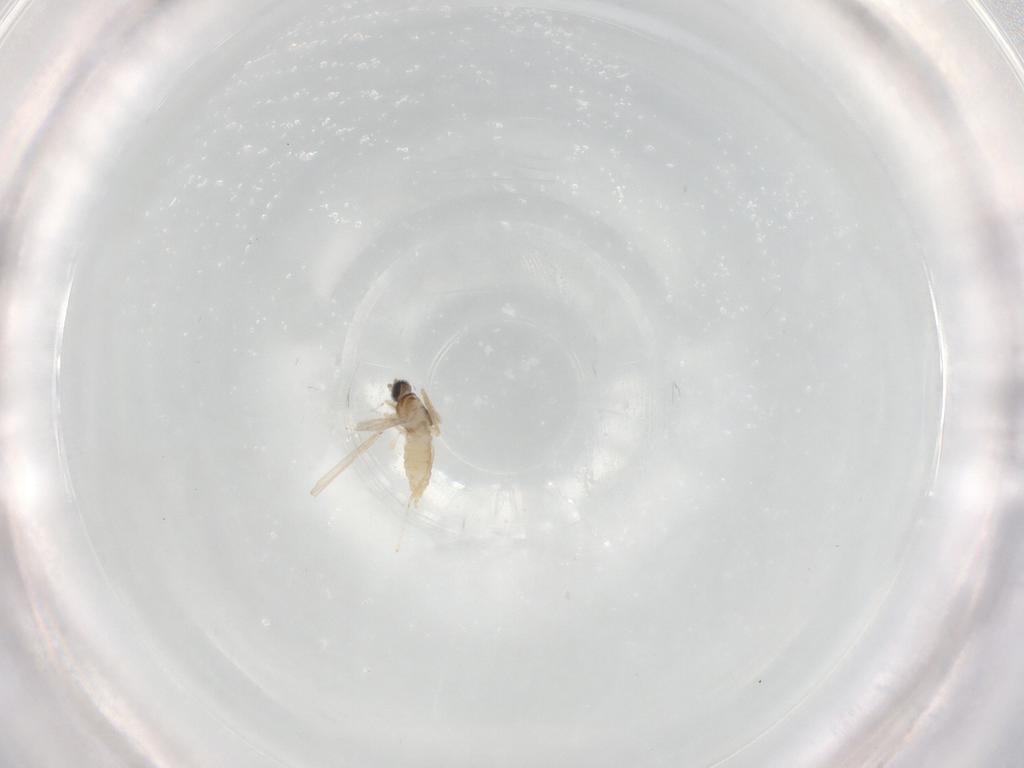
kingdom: Animalia
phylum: Arthropoda
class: Insecta
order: Diptera
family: Cecidomyiidae
